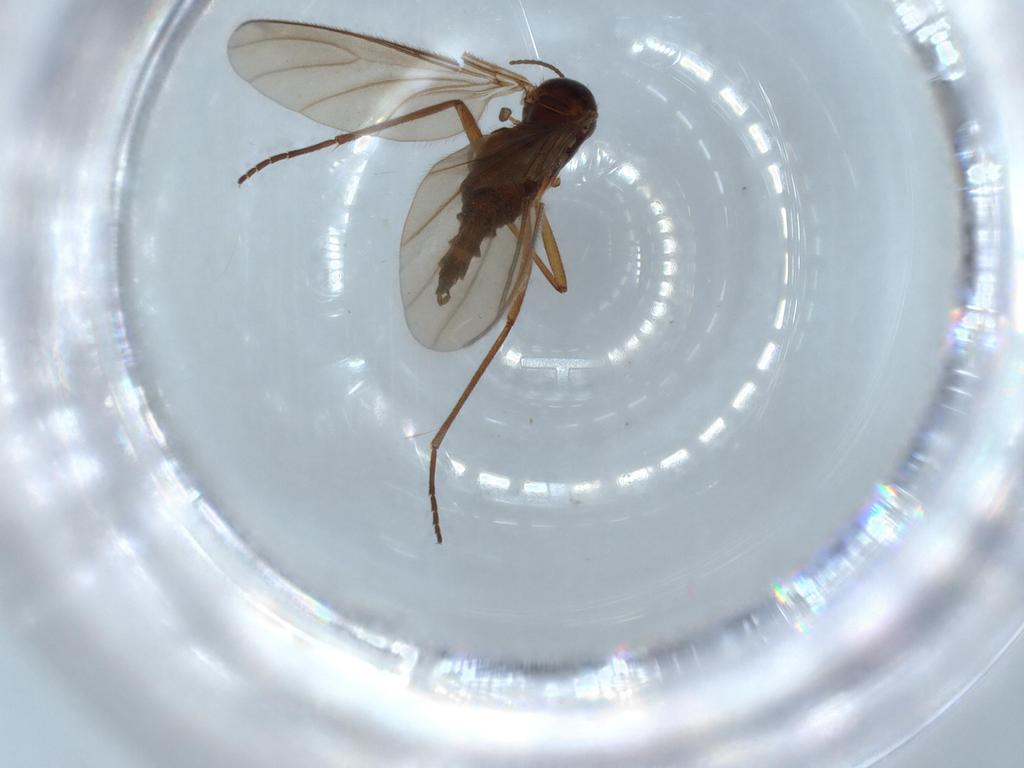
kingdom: Animalia
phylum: Arthropoda
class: Insecta
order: Diptera
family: Sciaridae
